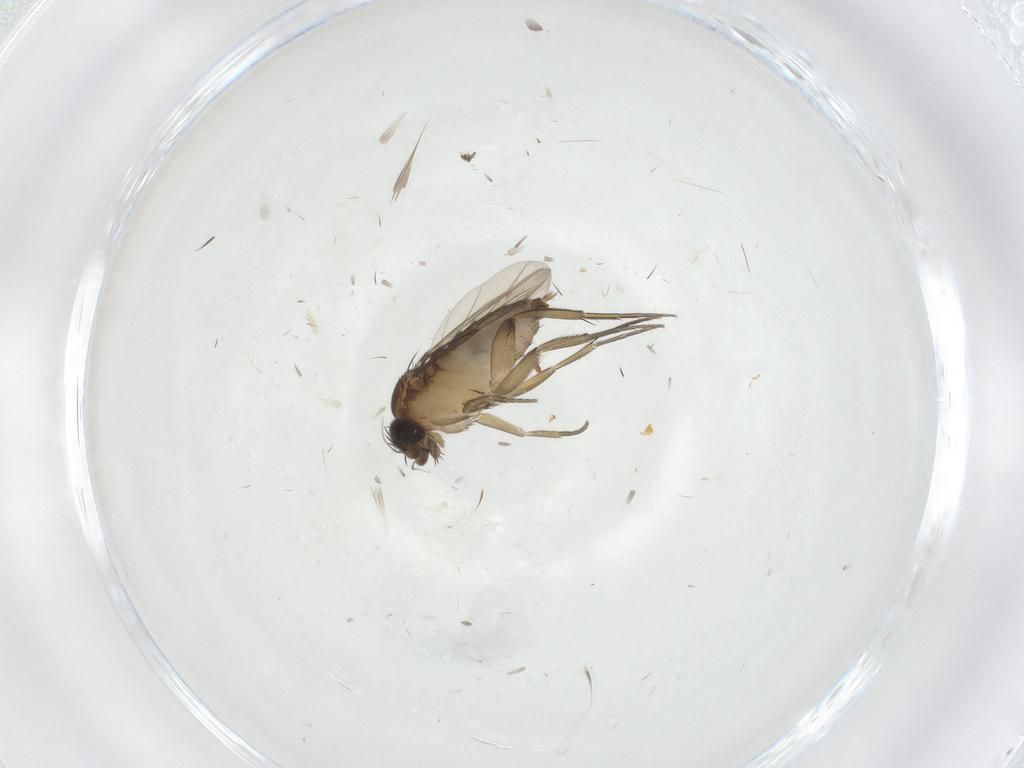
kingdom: Animalia
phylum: Arthropoda
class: Insecta
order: Diptera
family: Phoridae
